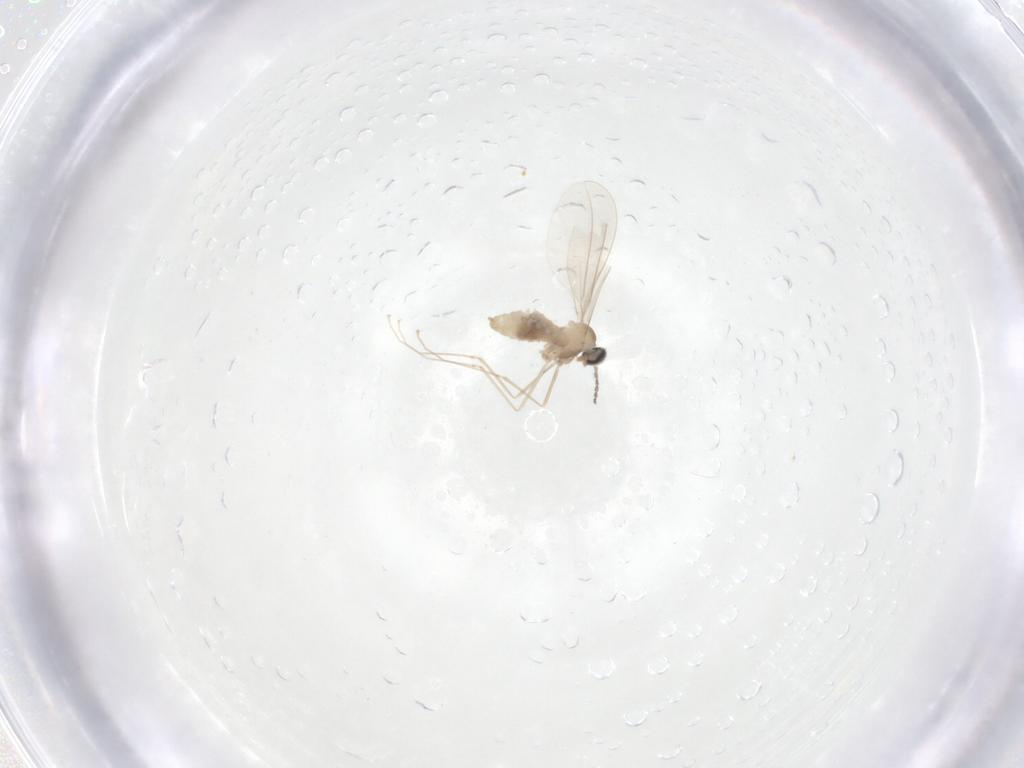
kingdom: Animalia
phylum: Arthropoda
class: Insecta
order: Diptera
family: Cecidomyiidae
